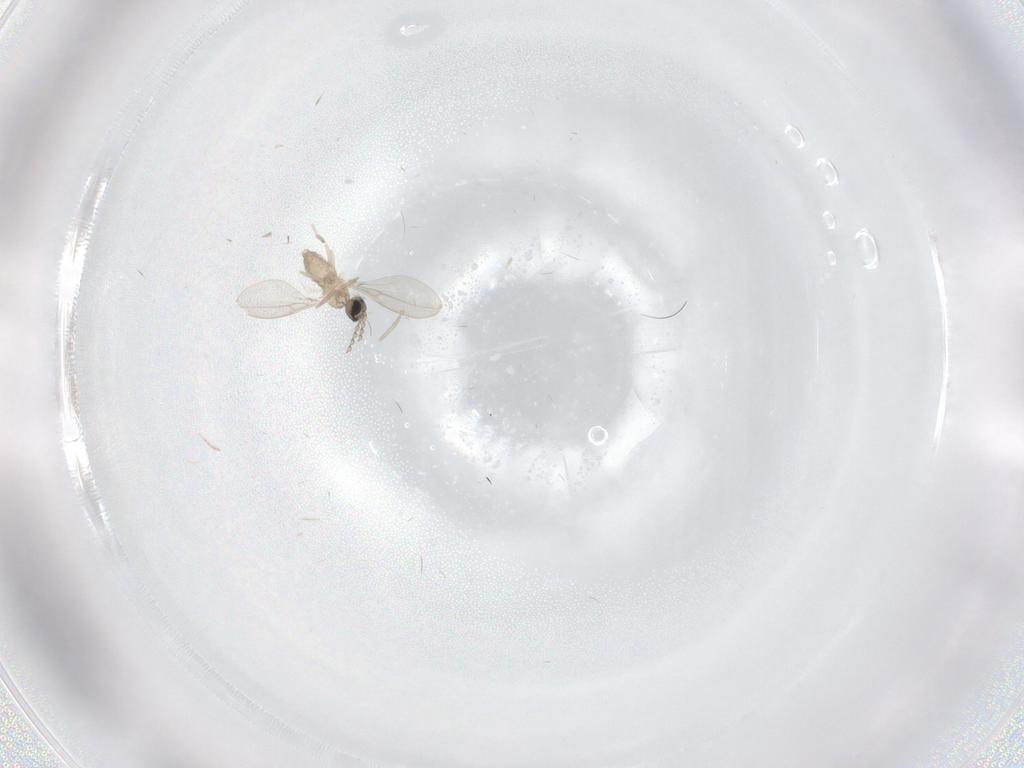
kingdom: Animalia
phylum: Arthropoda
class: Insecta
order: Diptera
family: Cecidomyiidae
